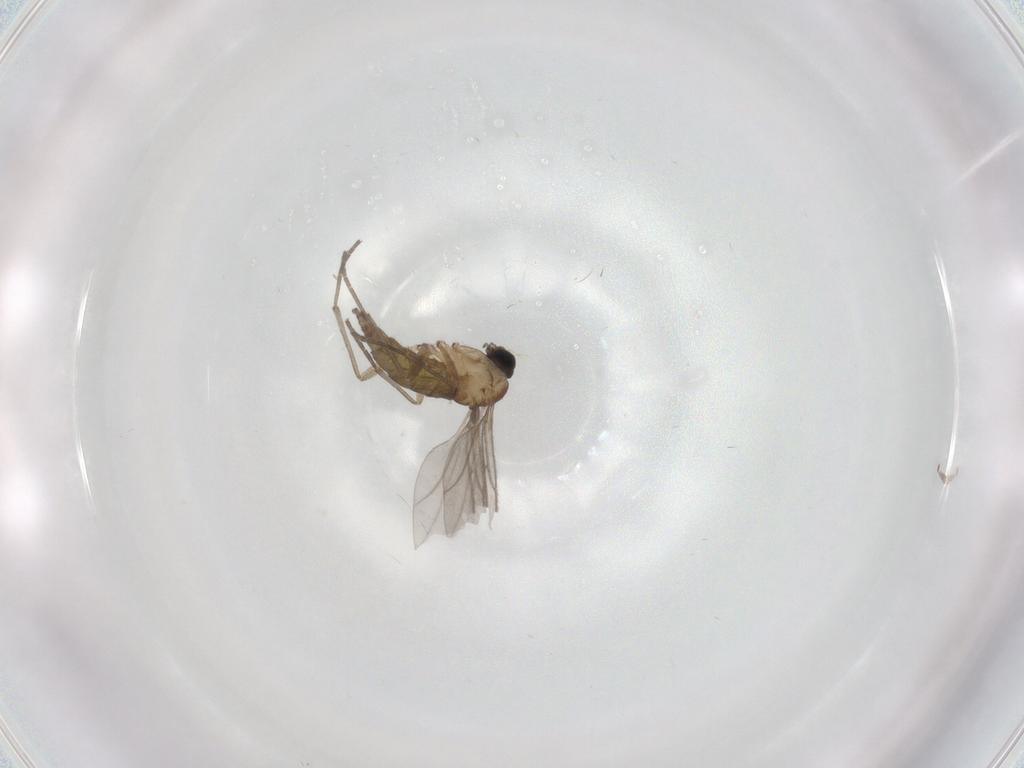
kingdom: Animalia
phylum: Arthropoda
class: Insecta
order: Diptera
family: Sciaridae
